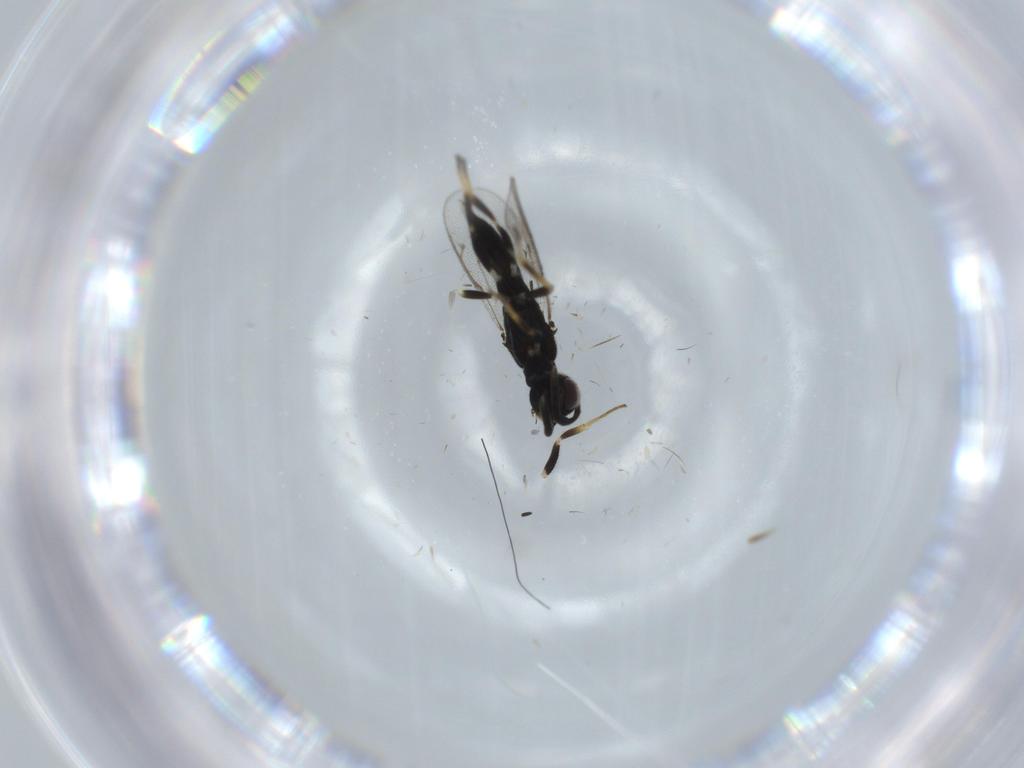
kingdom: Animalia
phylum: Arthropoda
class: Insecta
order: Hymenoptera
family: Eupelmidae
